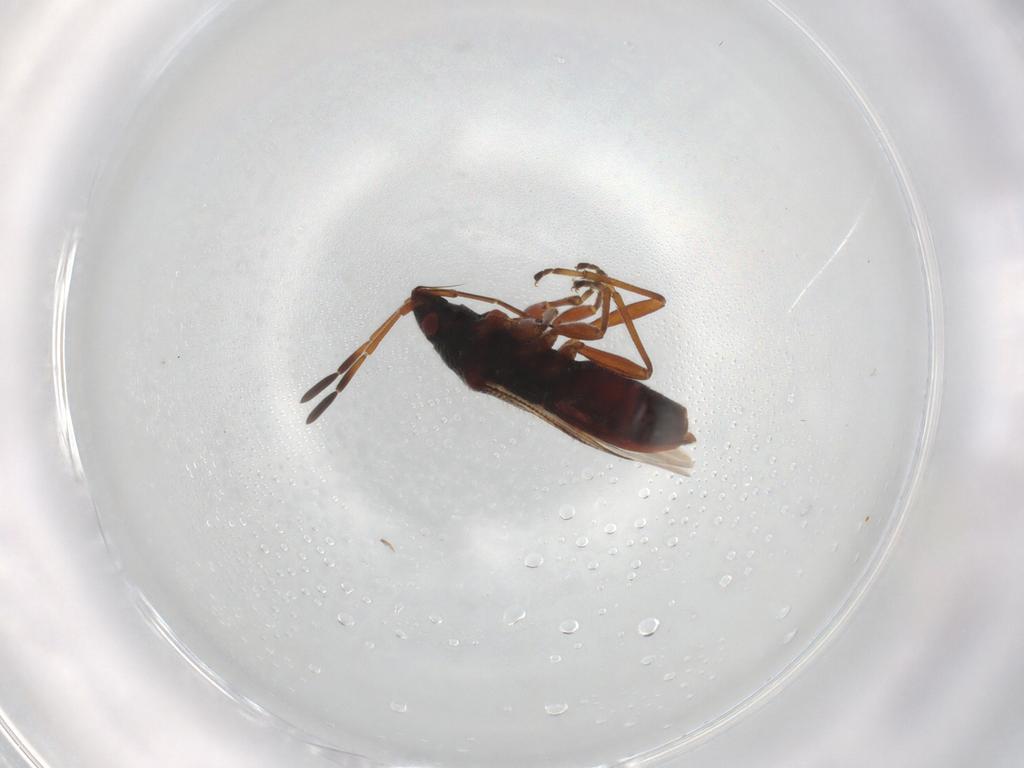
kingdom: Animalia
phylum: Arthropoda
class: Insecta
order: Hemiptera
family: Rhyparochromidae
